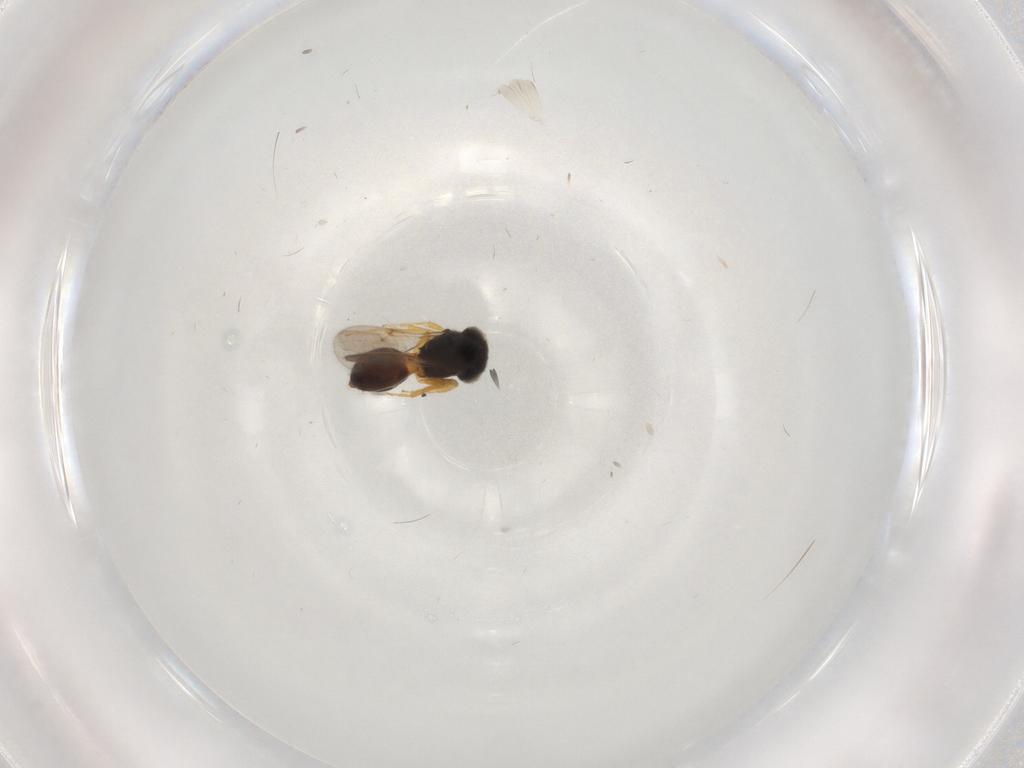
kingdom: Animalia
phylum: Arthropoda
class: Insecta
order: Hymenoptera
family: Scelionidae
